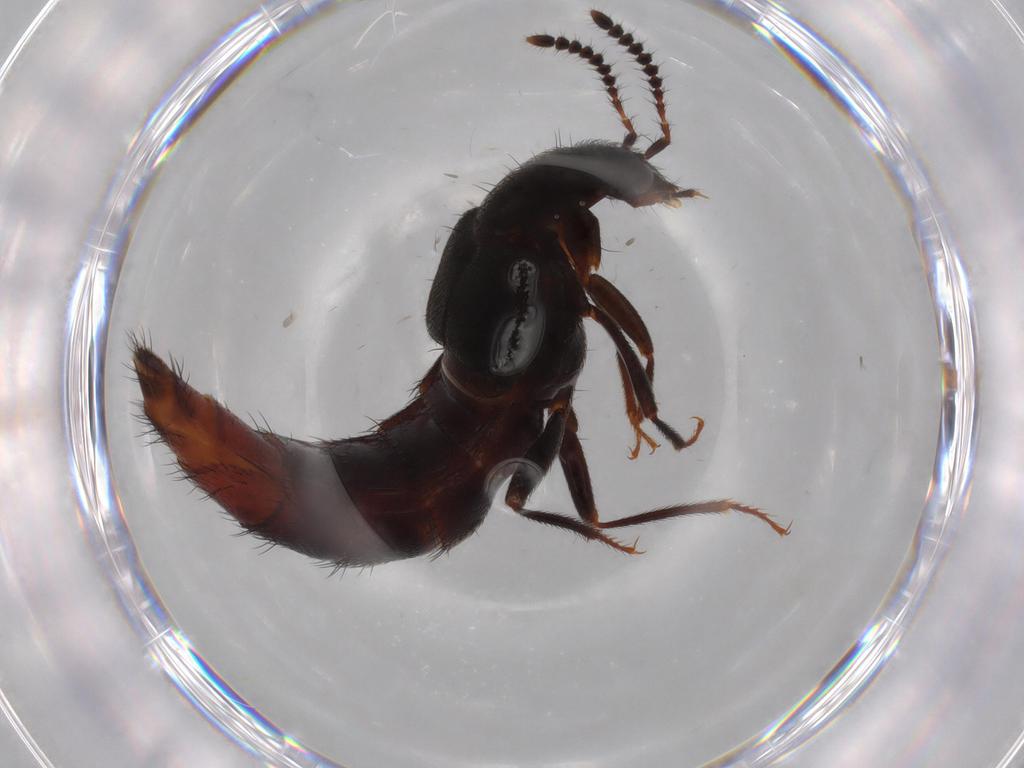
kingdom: Animalia
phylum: Arthropoda
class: Insecta
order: Coleoptera
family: Staphylinidae
